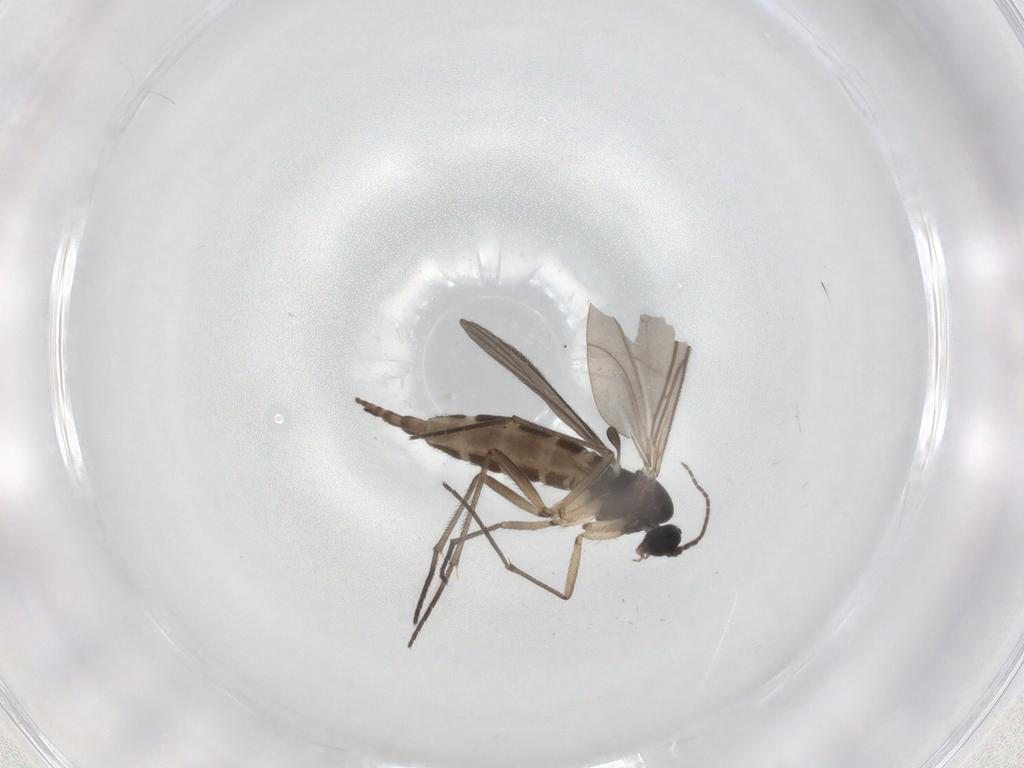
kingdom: Animalia
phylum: Arthropoda
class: Insecta
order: Diptera
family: Sciaridae
